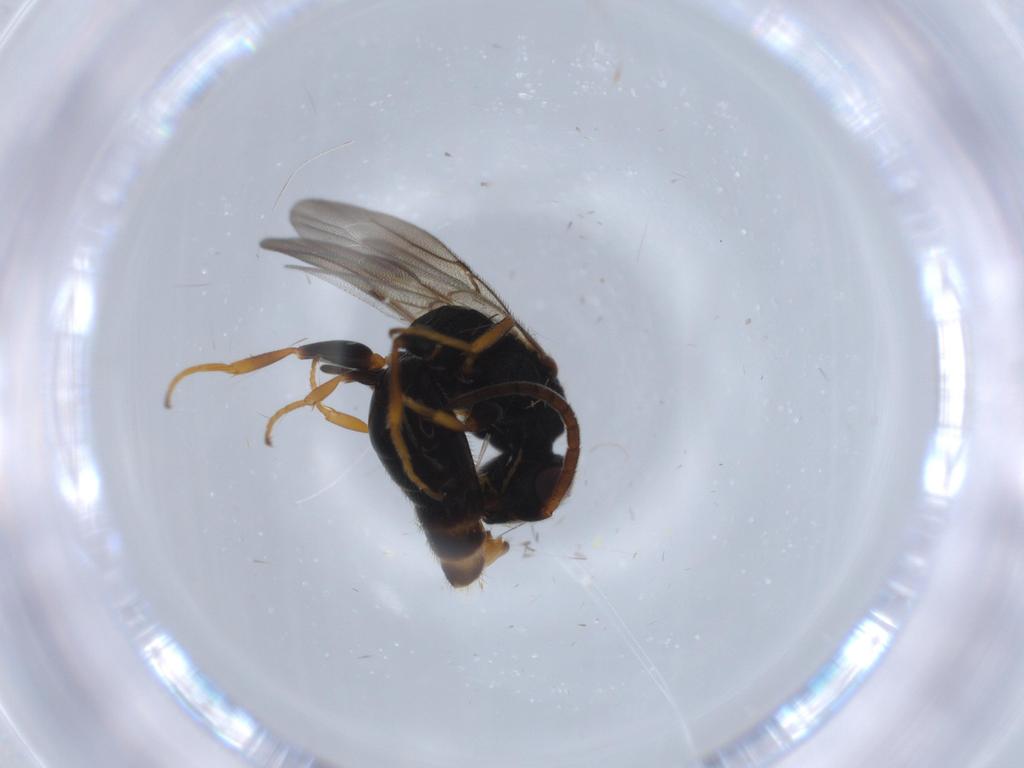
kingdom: Animalia
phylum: Arthropoda
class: Insecta
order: Hymenoptera
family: Bethylidae
